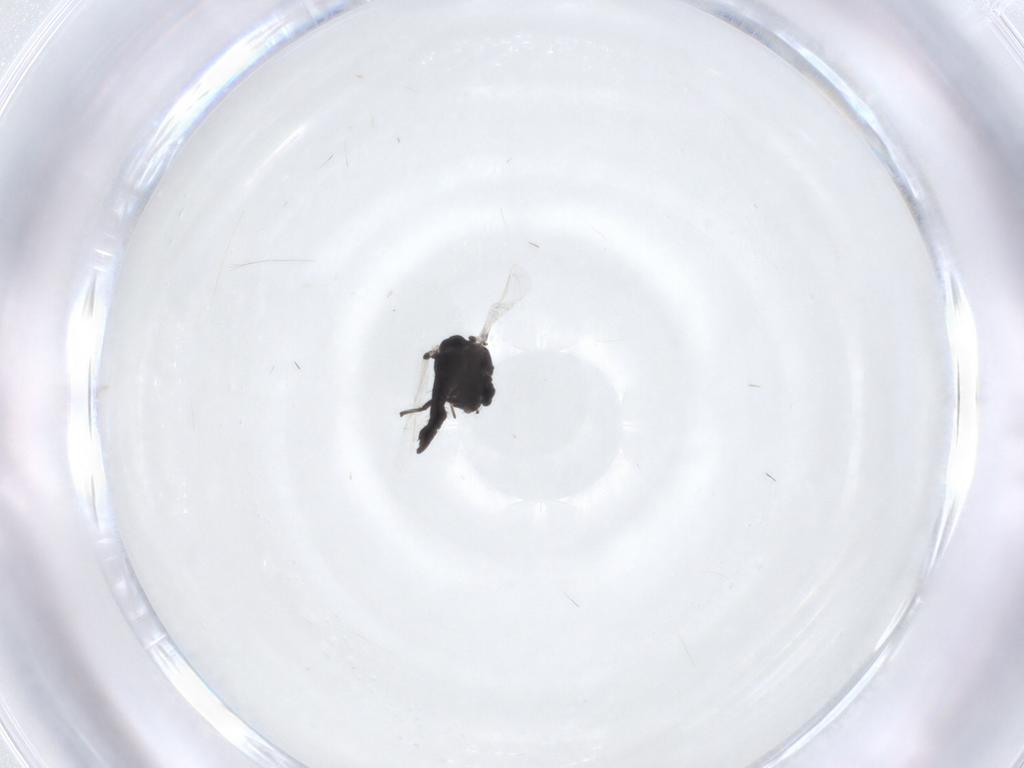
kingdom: Animalia
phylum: Arthropoda
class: Insecta
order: Diptera
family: Chironomidae
